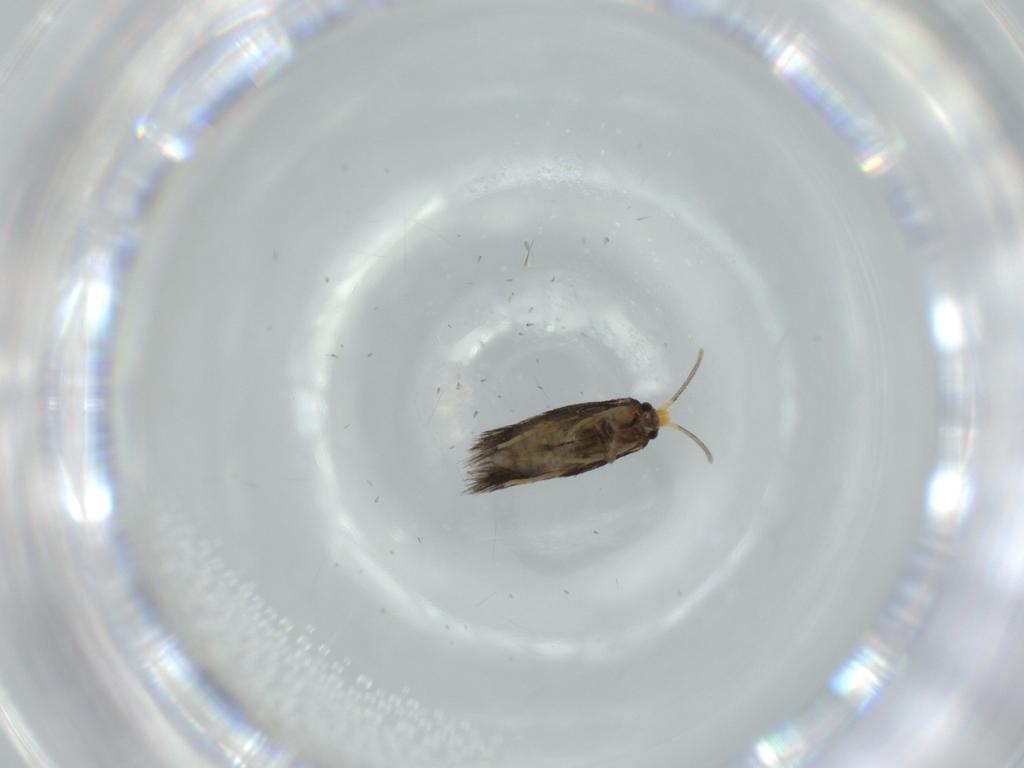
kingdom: Animalia
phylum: Arthropoda
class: Insecta
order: Lepidoptera
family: Nepticulidae
